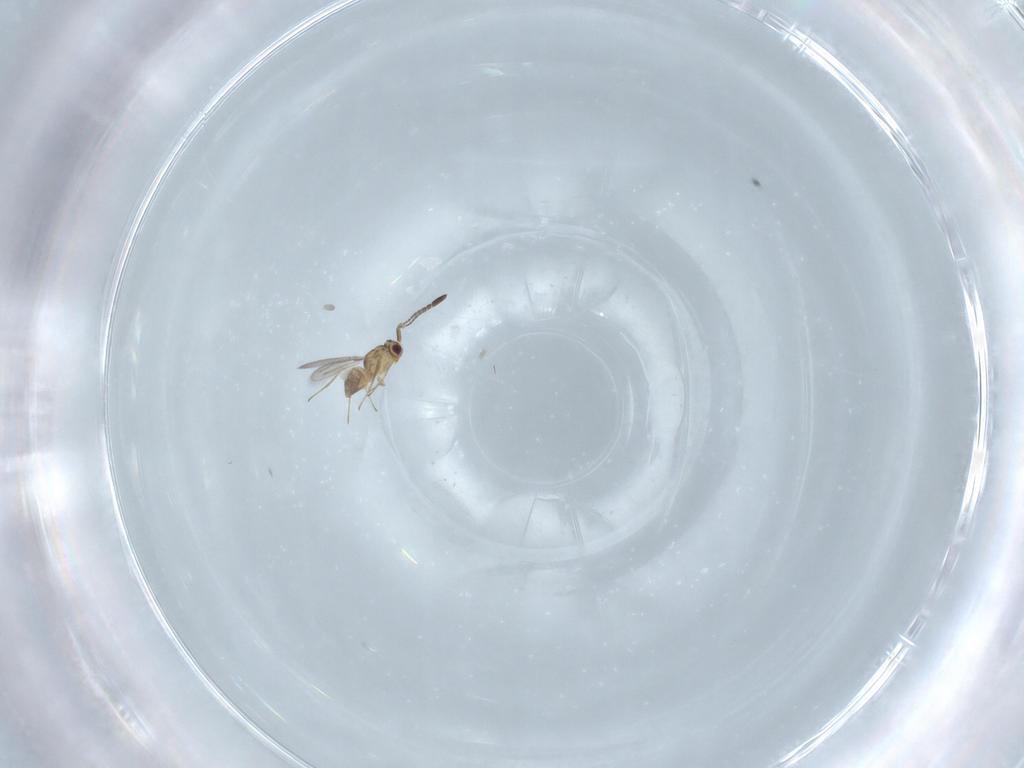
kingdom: Animalia
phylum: Arthropoda
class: Insecta
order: Hymenoptera
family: Mymaridae
